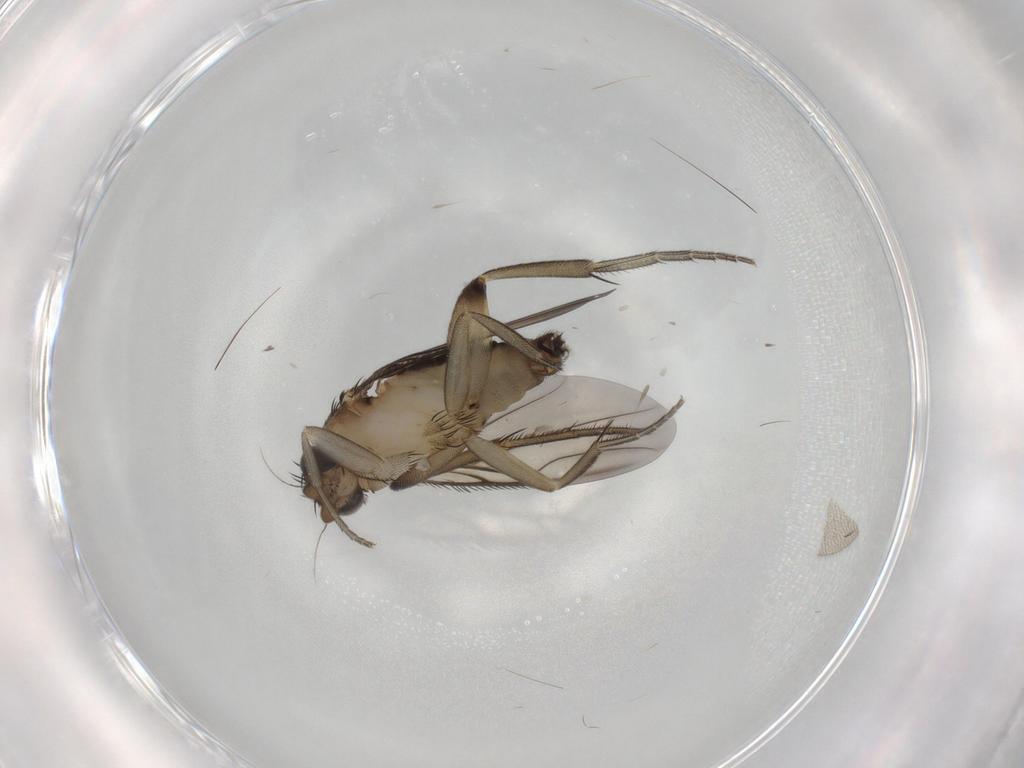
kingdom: Animalia
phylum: Arthropoda
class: Insecta
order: Diptera
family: Phoridae
